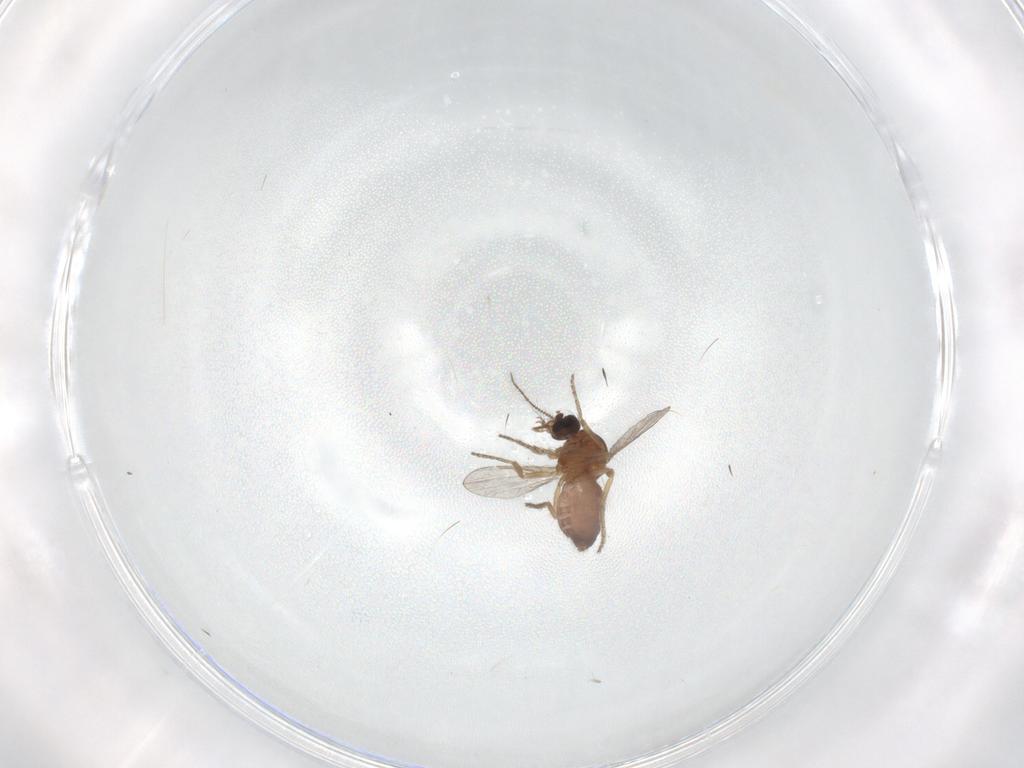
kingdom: Animalia
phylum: Arthropoda
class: Insecta
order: Diptera
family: Ceratopogonidae
